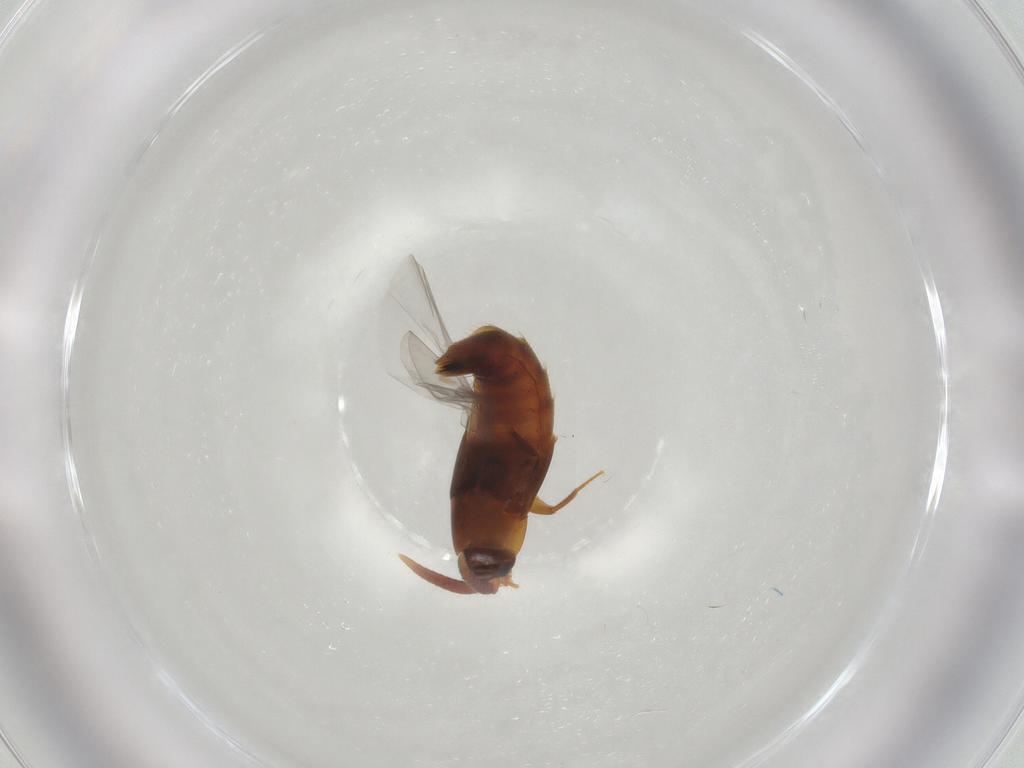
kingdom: Animalia
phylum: Arthropoda
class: Insecta
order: Coleoptera
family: Staphylinidae
